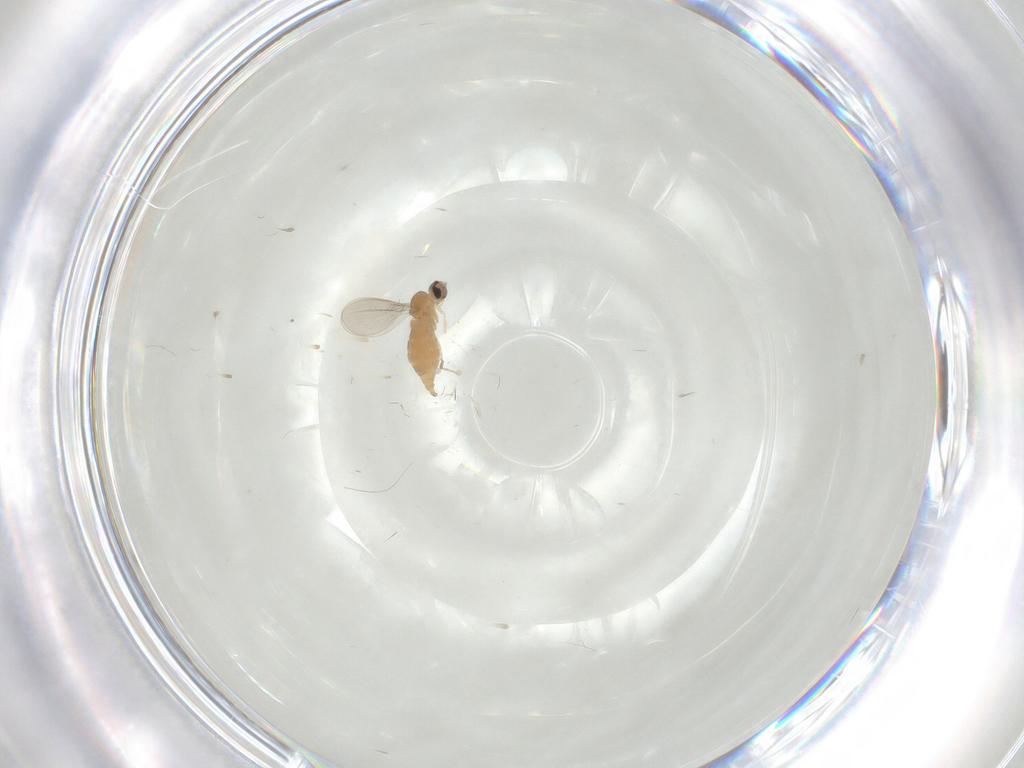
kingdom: Animalia
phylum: Arthropoda
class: Insecta
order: Diptera
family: Cecidomyiidae
